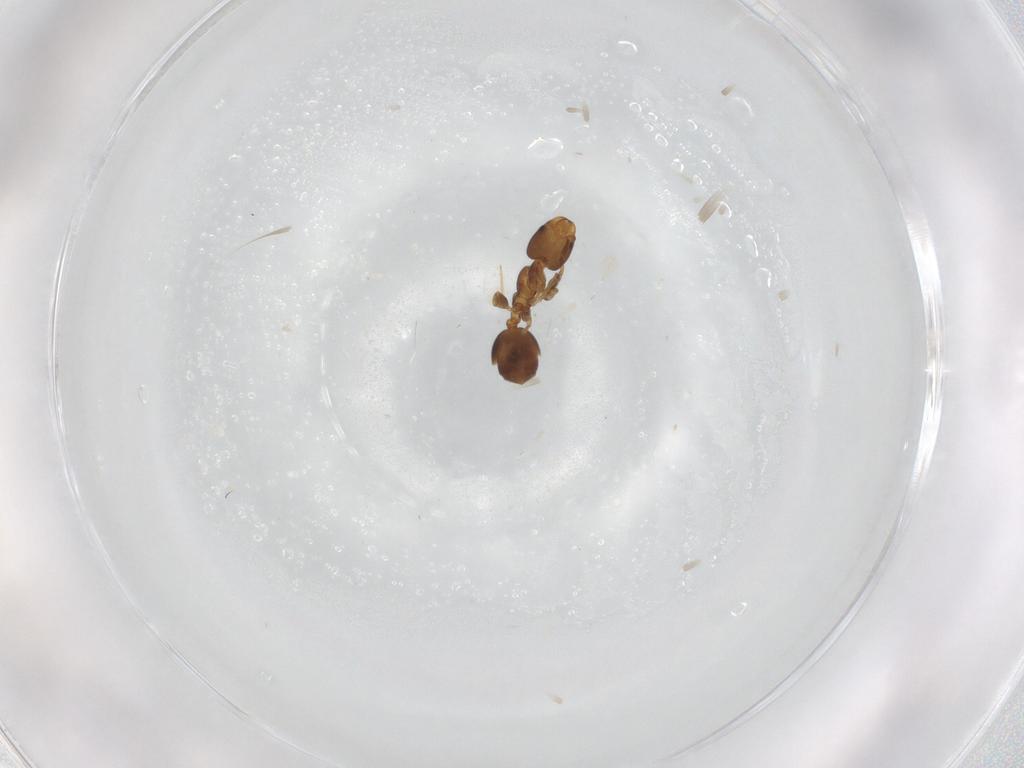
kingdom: Animalia
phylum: Arthropoda
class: Insecta
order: Hymenoptera
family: Formicidae
